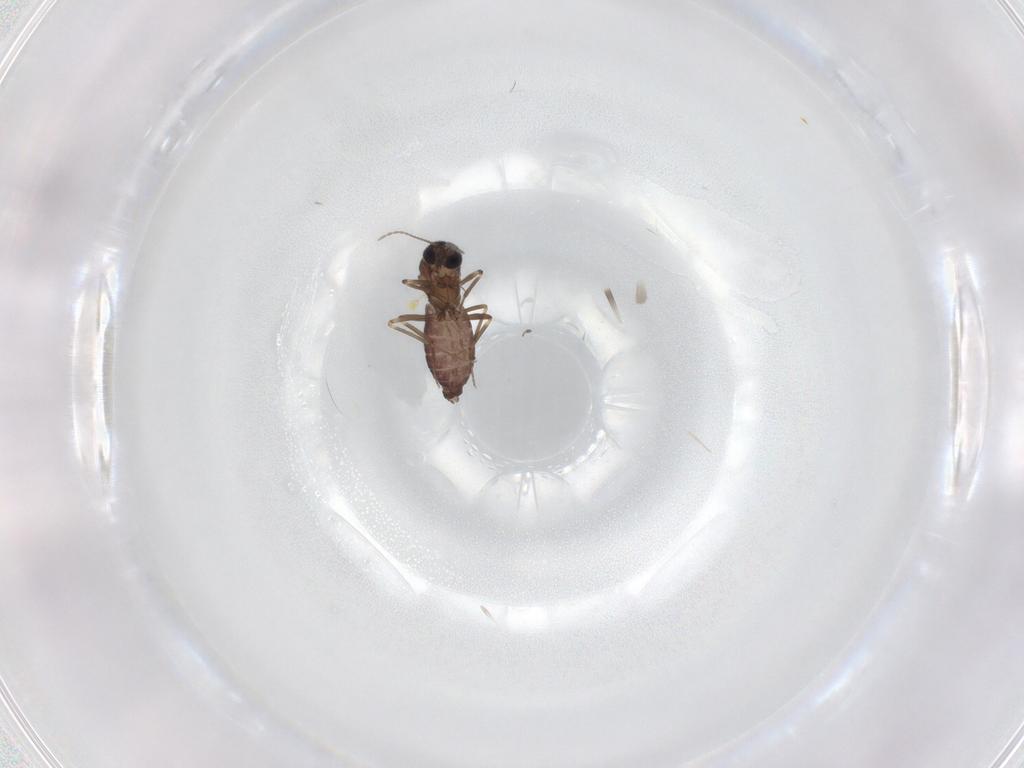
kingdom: Animalia
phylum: Arthropoda
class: Insecta
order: Diptera
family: Ceratopogonidae
